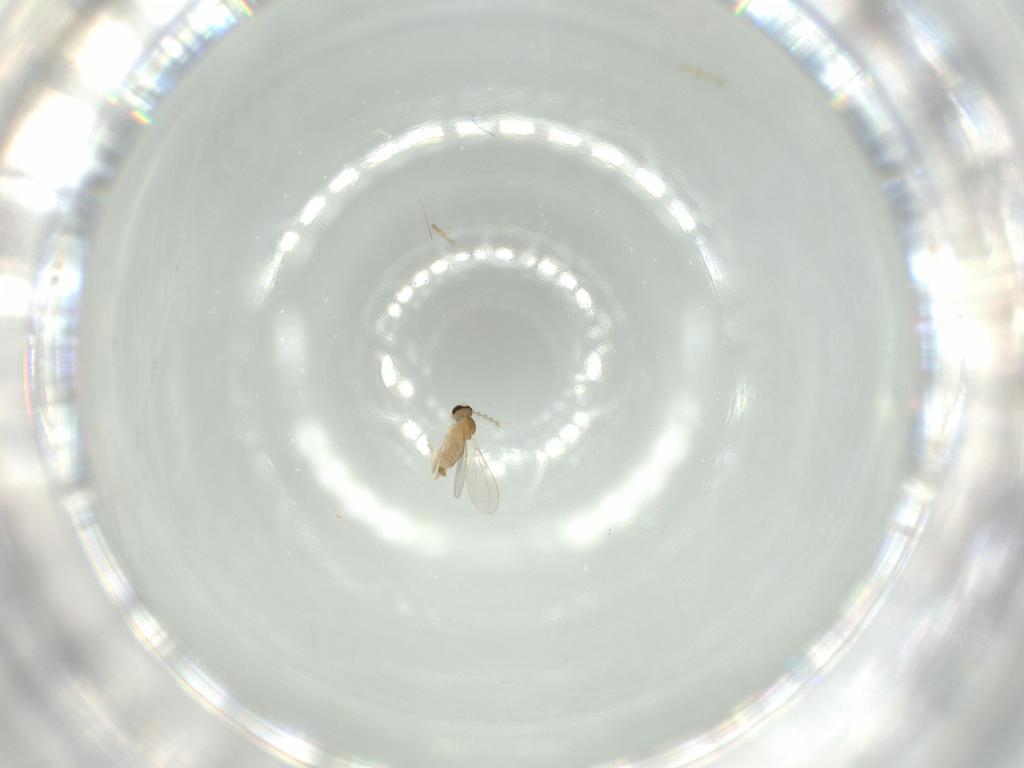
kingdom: Animalia
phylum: Arthropoda
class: Insecta
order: Diptera
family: Cecidomyiidae
